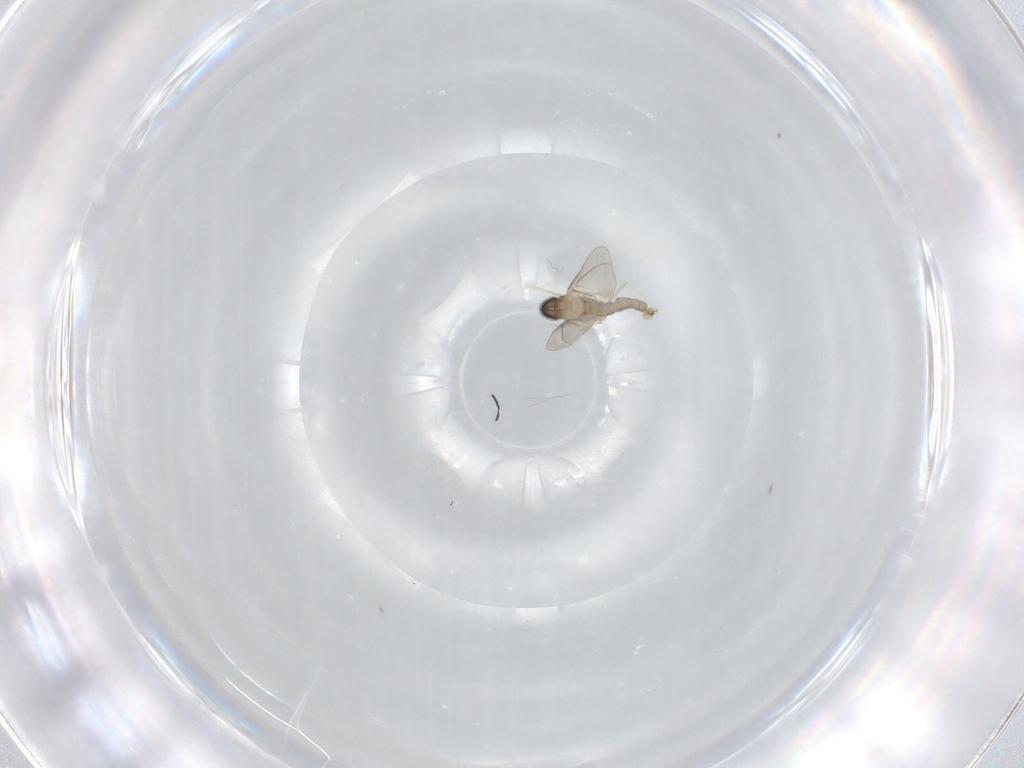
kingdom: Animalia
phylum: Arthropoda
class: Insecta
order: Diptera
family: Cecidomyiidae
